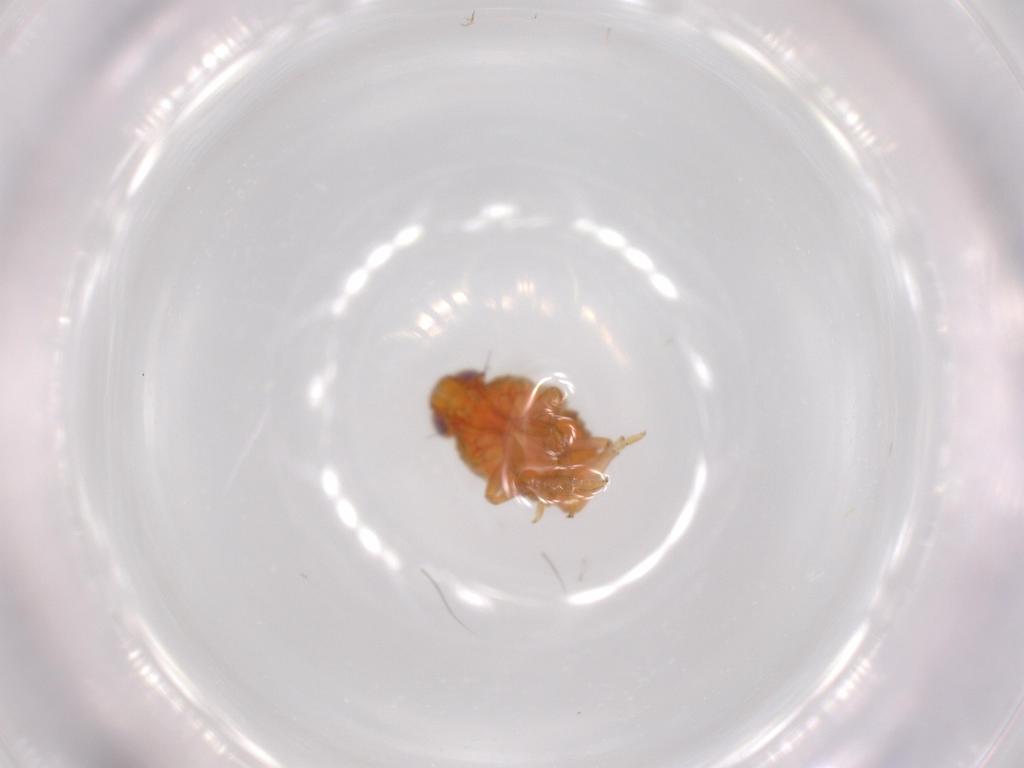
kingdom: Animalia
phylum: Arthropoda
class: Insecta
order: Hemiptera
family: Issidae
